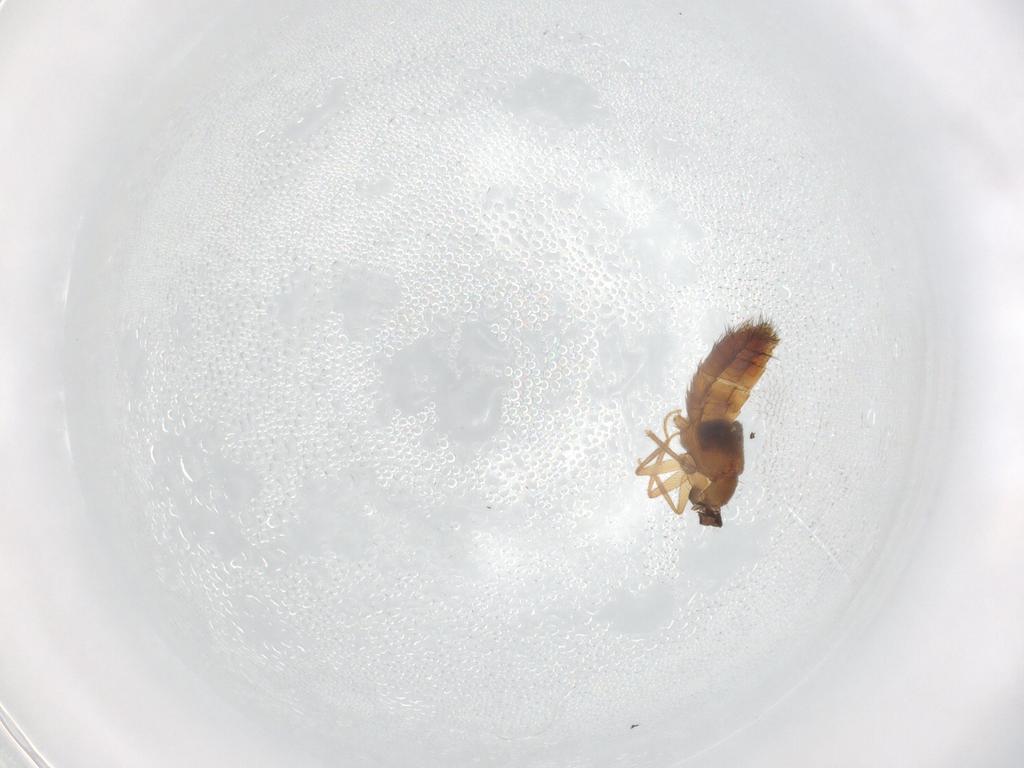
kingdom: Animalia
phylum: Arthropoda
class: Insecta
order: Coleoptera
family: Staphylinidae
